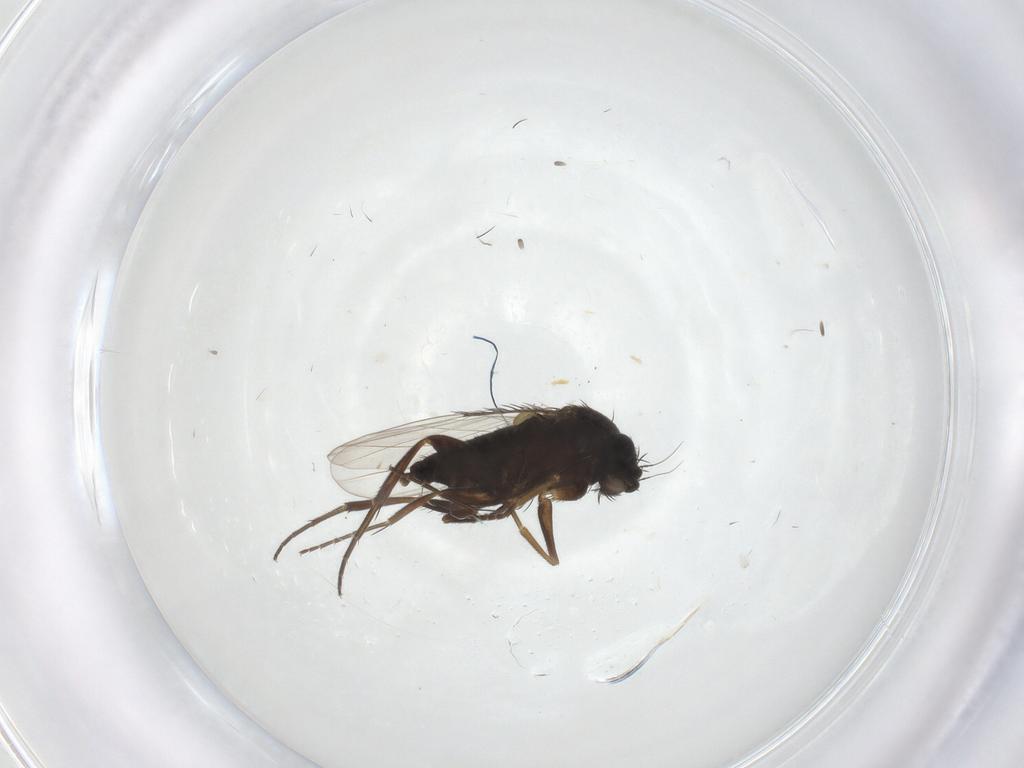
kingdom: Animalia
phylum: Arthropoda
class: Insecta
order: Diptera
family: Phoridae
